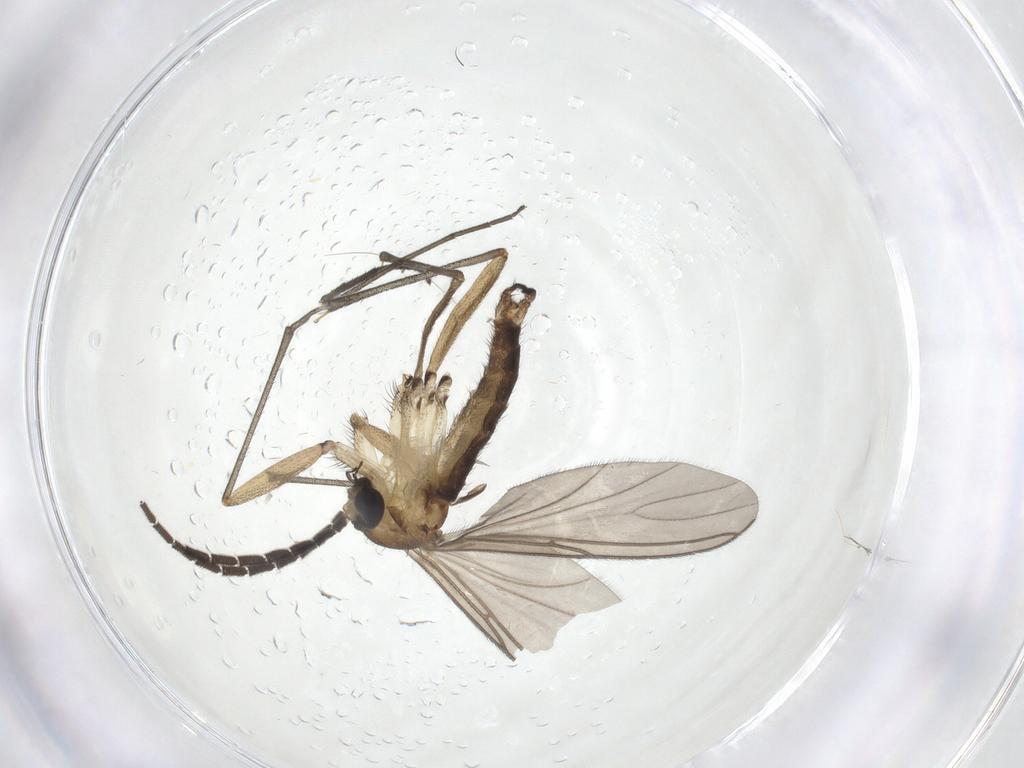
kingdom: Animalia
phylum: Arthropoda
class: Insecta
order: Diptera
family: Sciaridae
